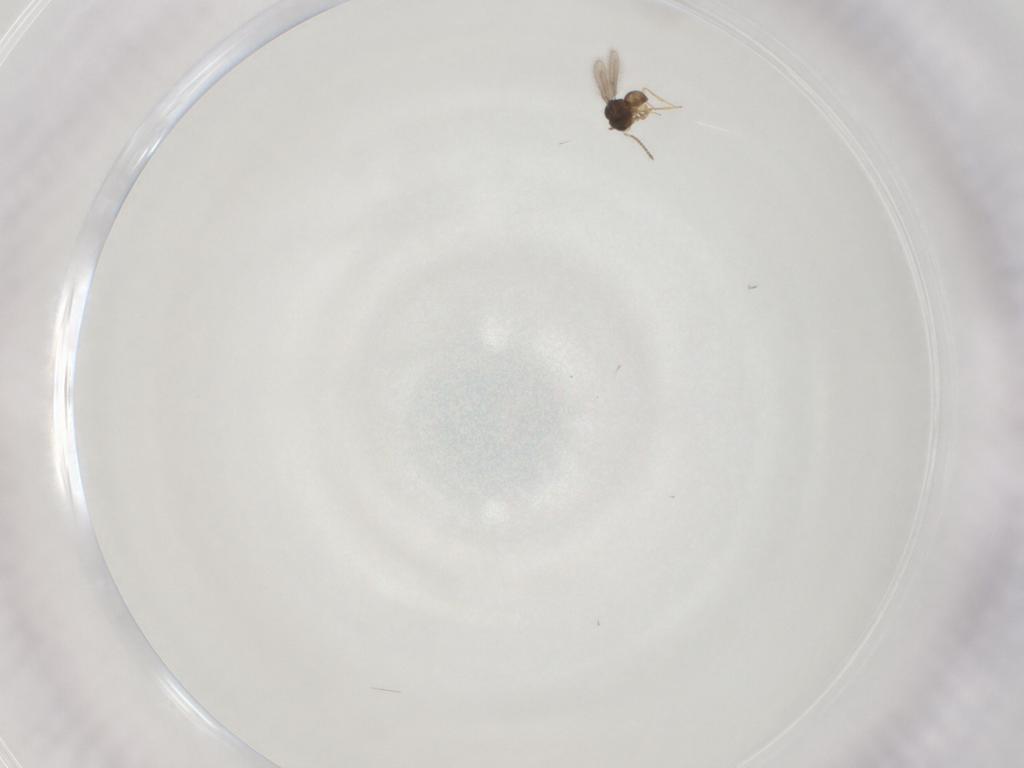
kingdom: Animalia
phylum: Arthropoda
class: Insecta
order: Hymenoptera
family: Scelionidae
